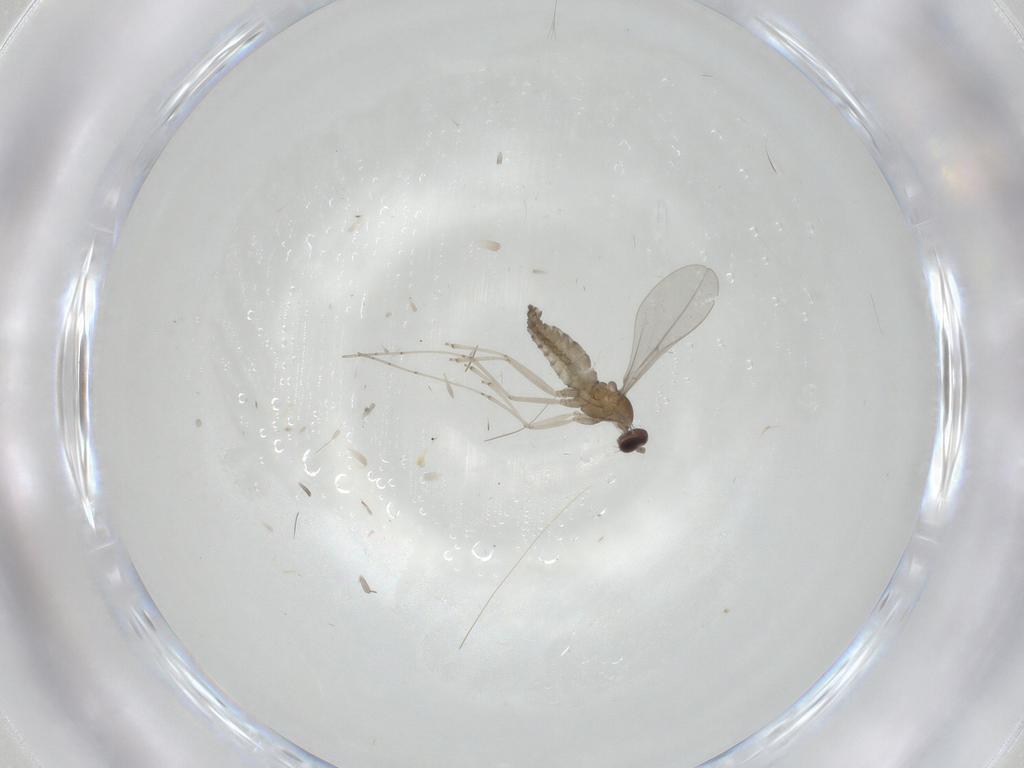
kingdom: Animalia
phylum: Arthropoda
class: Insecta
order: Diptera
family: Cecidomyiidae
